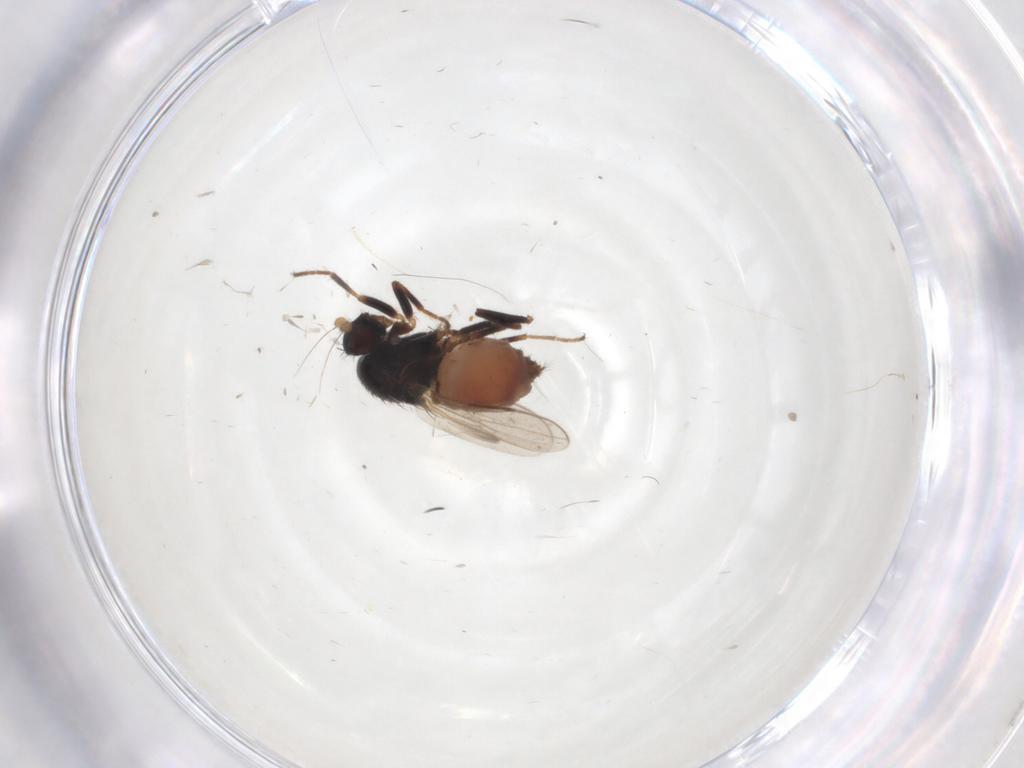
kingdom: Animalia
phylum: Arthropoda
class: Insecta
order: Diptera
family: Sphaeroceridae
